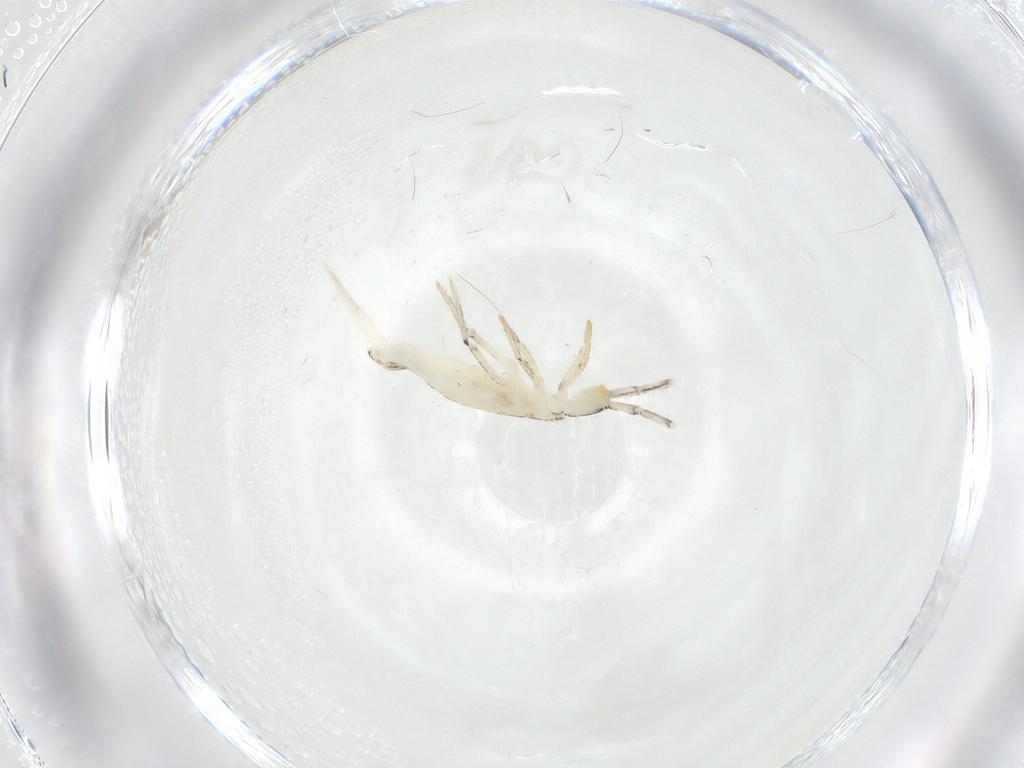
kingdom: Animalia
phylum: Arthropoda
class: Collembola
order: Entomobryomorpha
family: Entomobryidae
